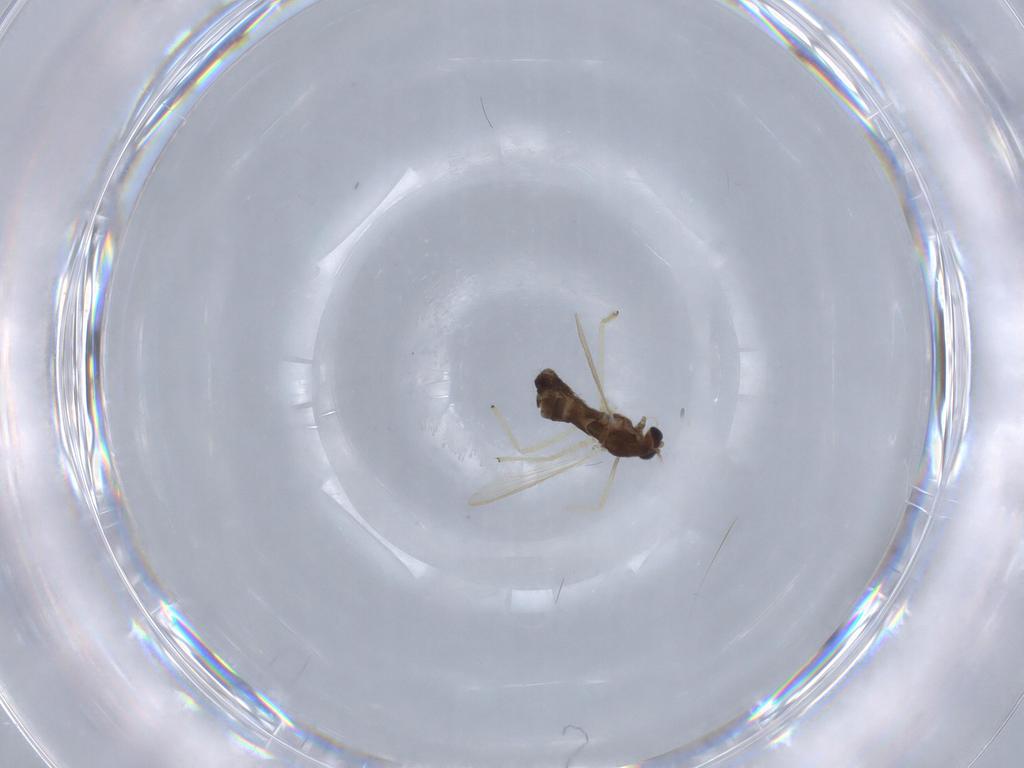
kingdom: Animalia
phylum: Arthropoda
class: Insecta
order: Diptera
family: Chironomidae
